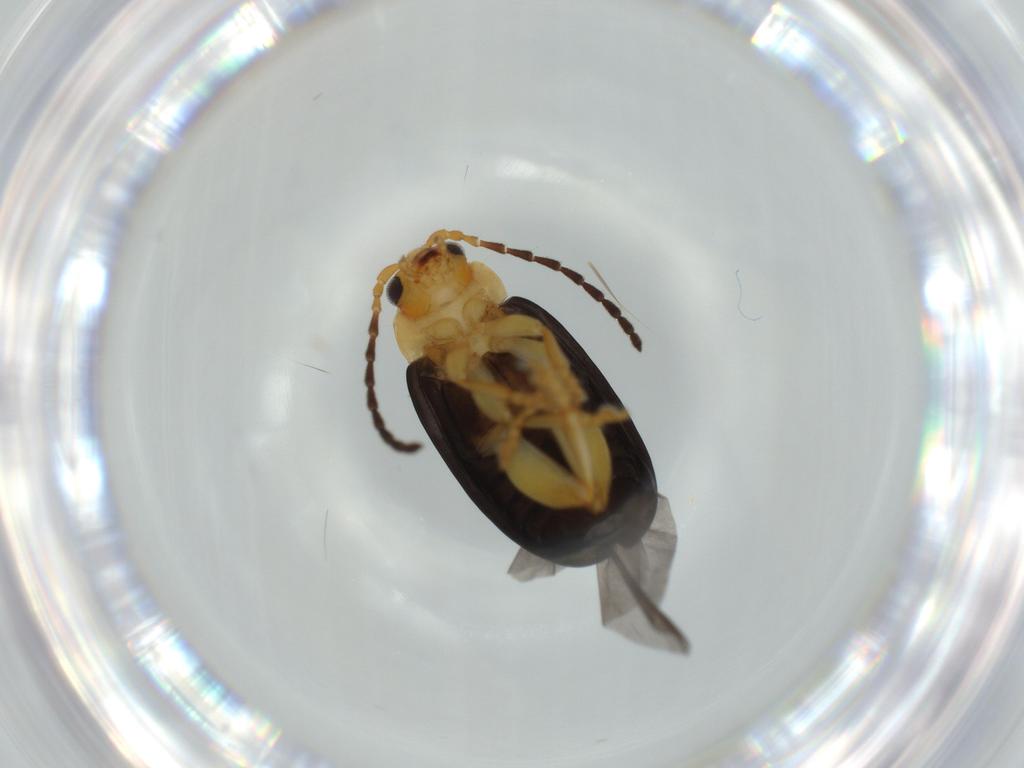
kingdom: Animalia
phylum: Arthropoda
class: Insecta
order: Coleoptera
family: Chrysomelidae
